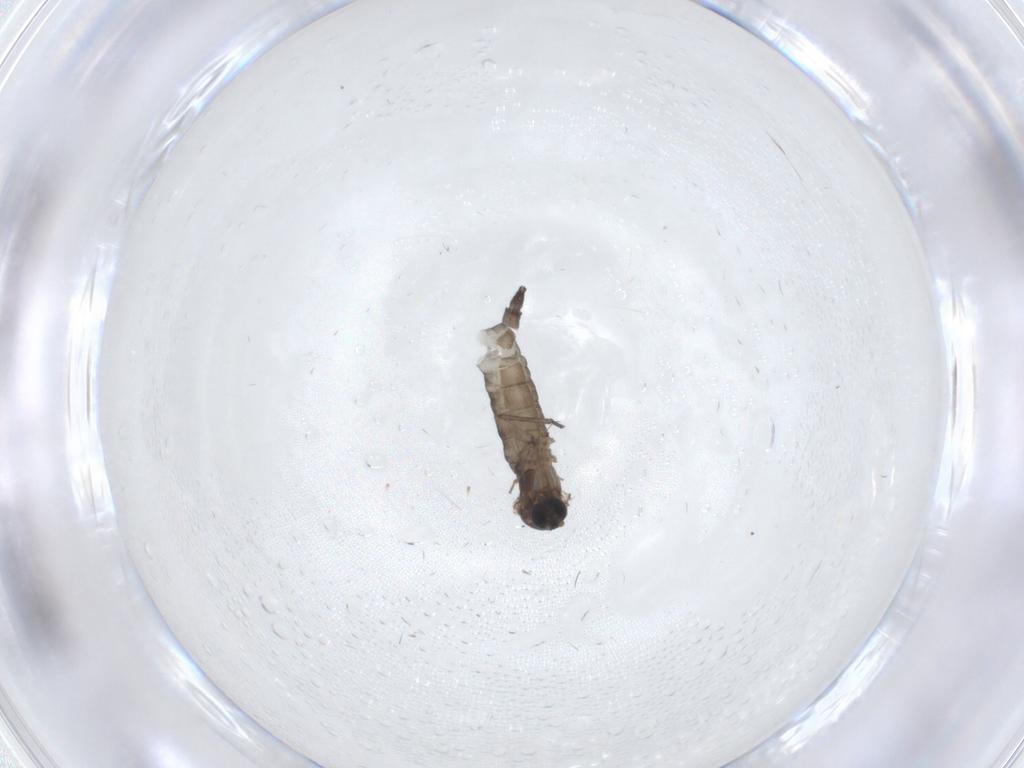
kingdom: Animalia
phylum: Arthropoda
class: Insecta
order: Diptera
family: Sciaridae
